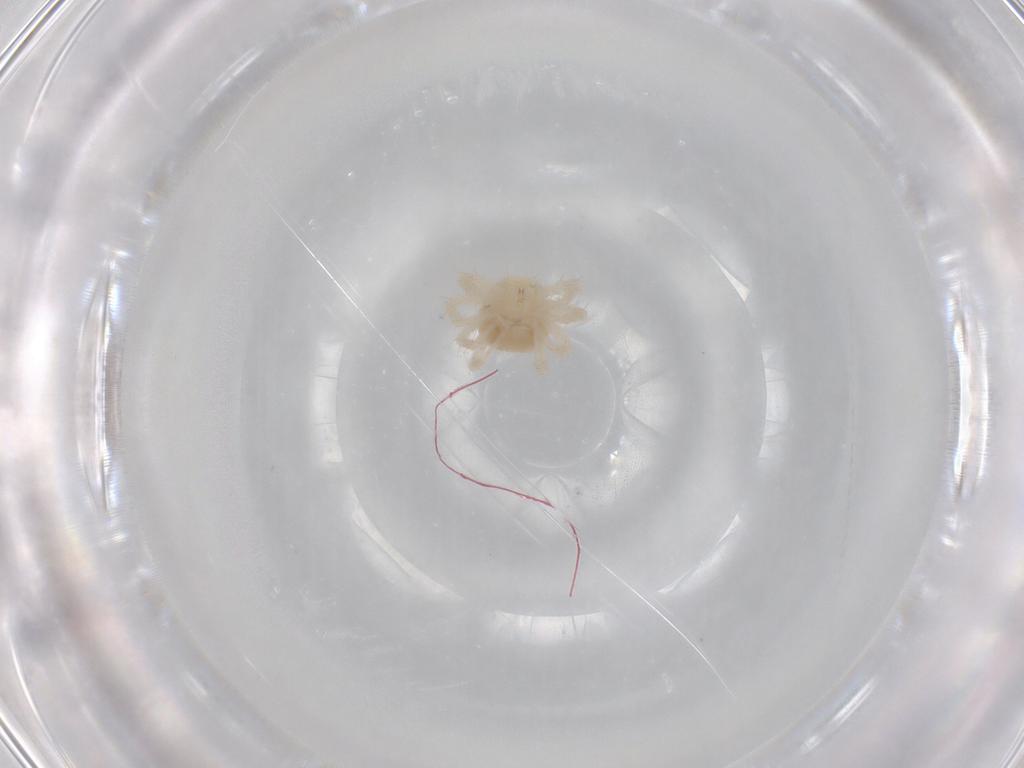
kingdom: Animalia
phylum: Arthropoda
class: Arachnida
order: Trombidiformes
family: Anystidae
